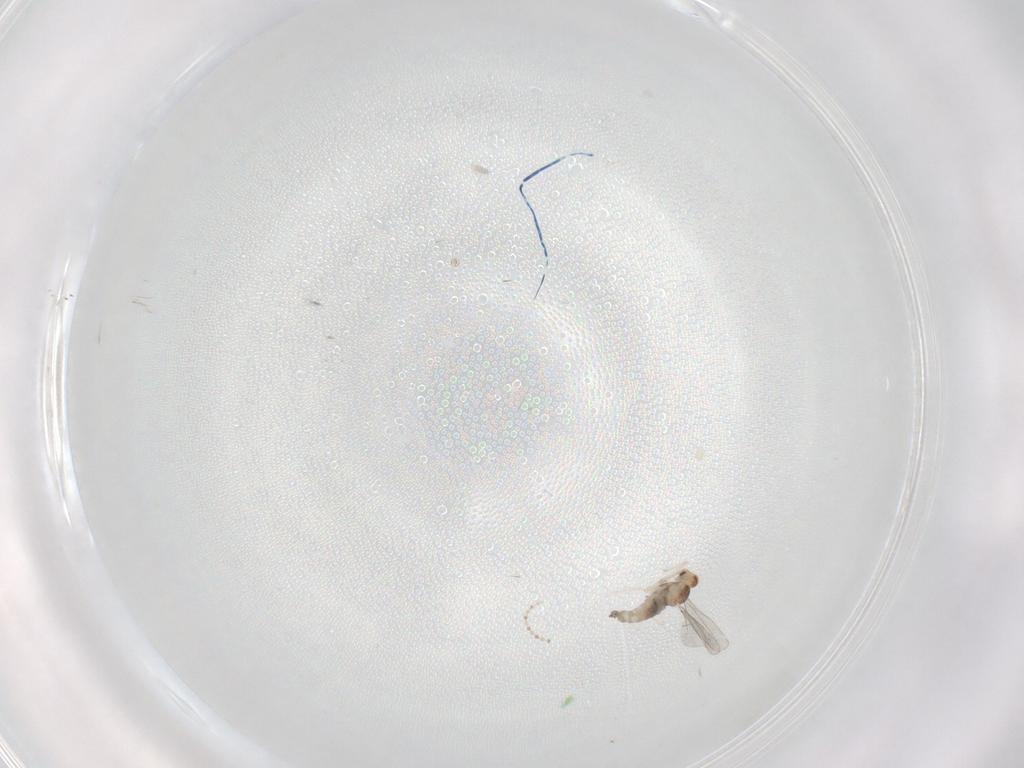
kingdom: Animalia
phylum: Arthropoda
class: Insecta
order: Diptera
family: Cecidomyiidae
